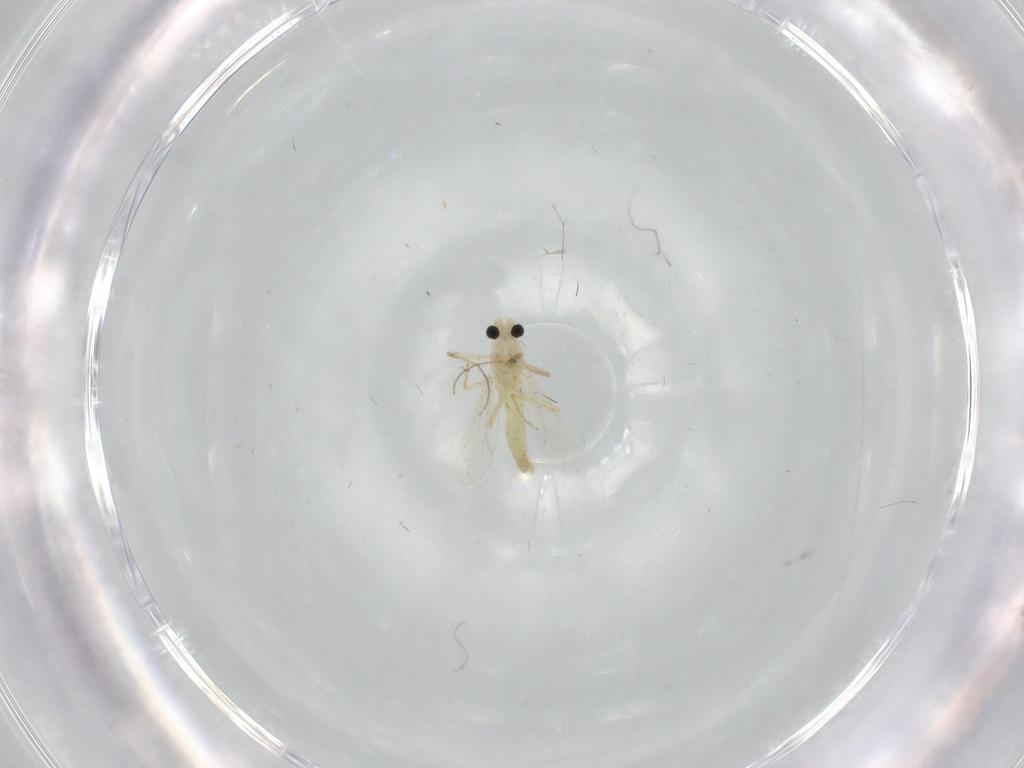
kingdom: Animalia
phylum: Arthropoda
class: Insecta
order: Diptera
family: Chironomidae
